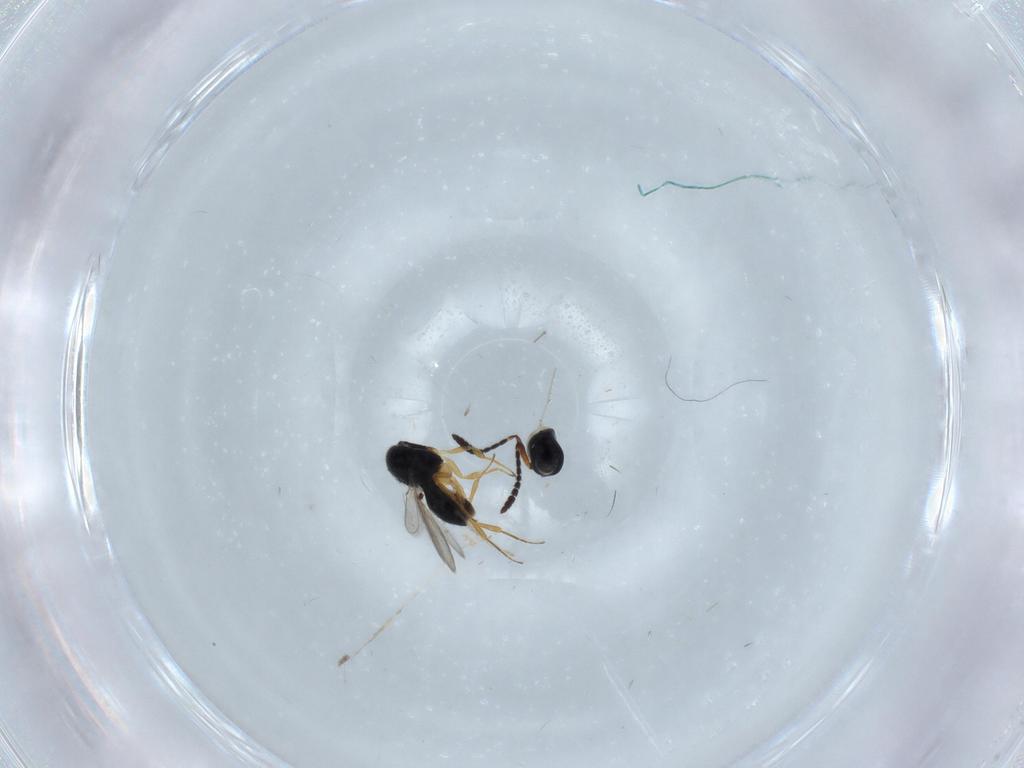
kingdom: Animalia
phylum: Arthropoda
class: Insecta
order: Hymenoptera
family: Scelionidae
